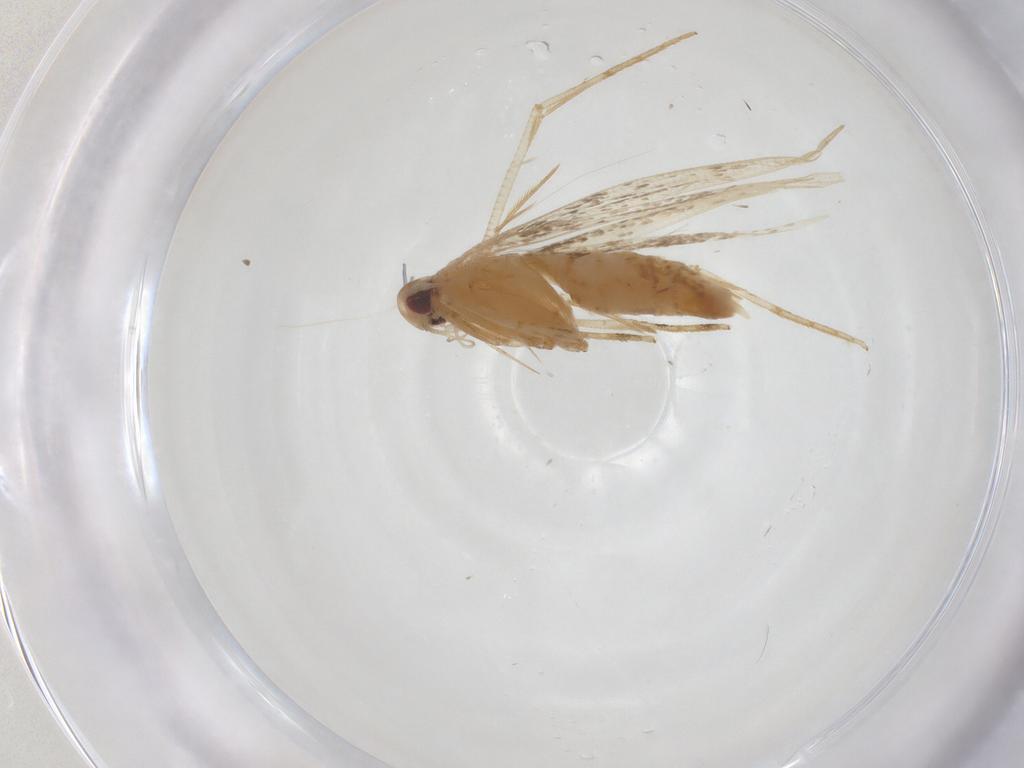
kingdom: Animalia
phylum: Arthropoda
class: Insecta
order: Lepidoptera
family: Cosmopterigidae
